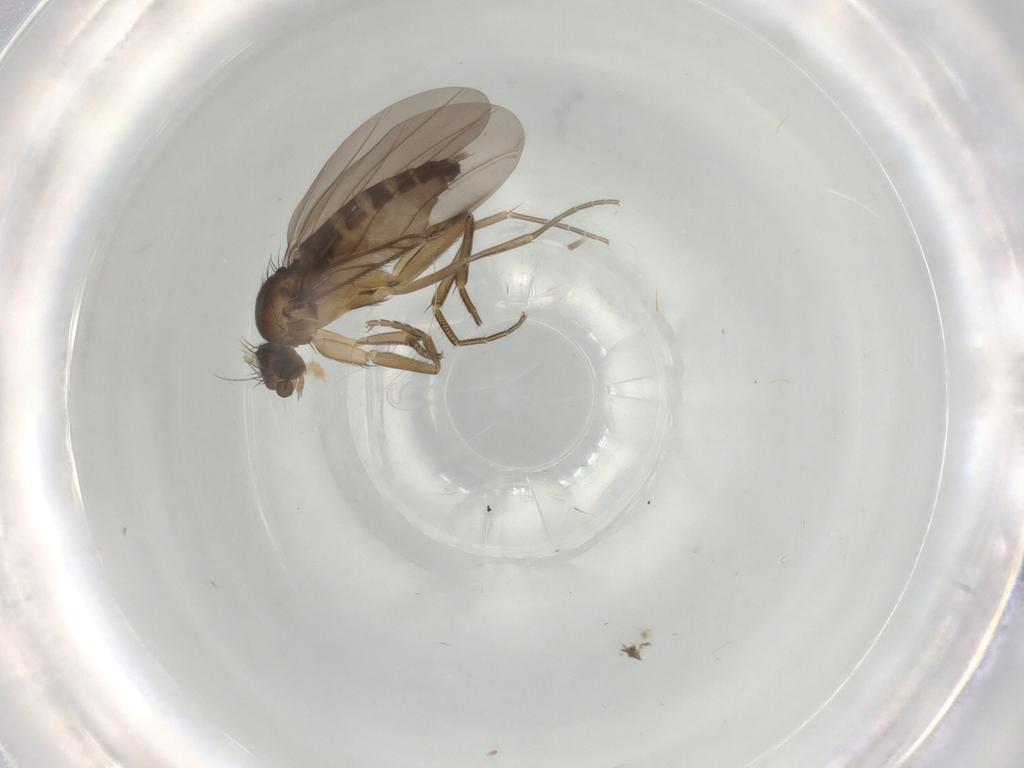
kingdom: Animalia
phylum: Arthropoda
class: Insecta
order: Diptera
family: Phoridae
